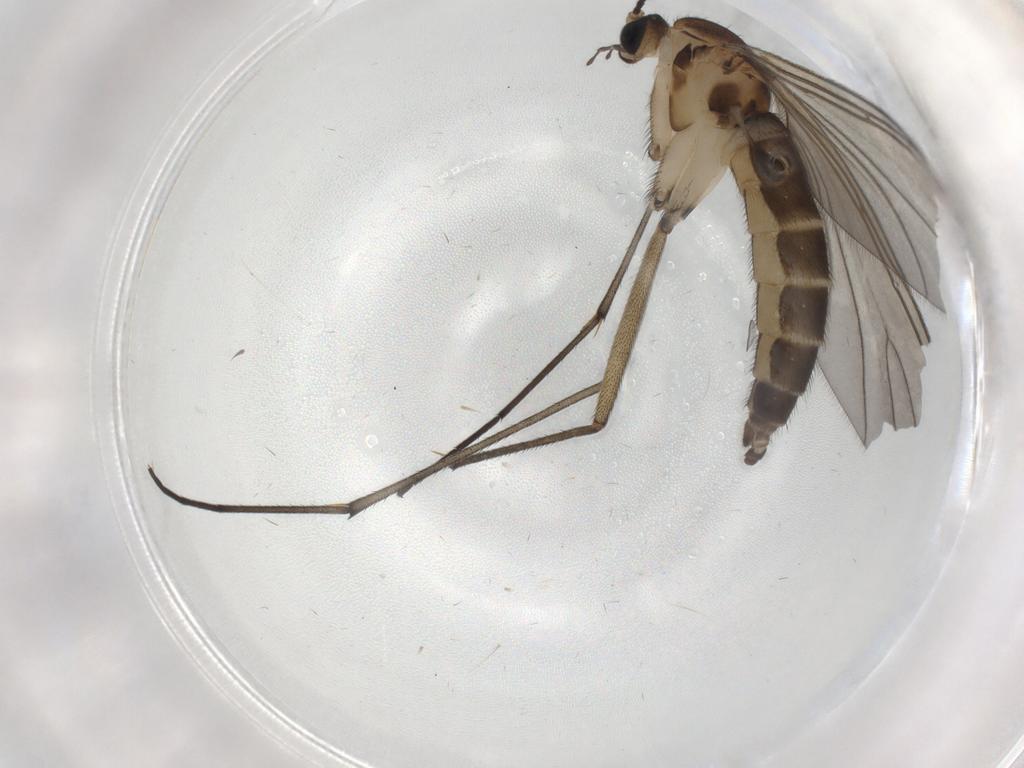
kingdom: Animalia
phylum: Arthropoda
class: Insecta
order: Diptera
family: Sciaridae
